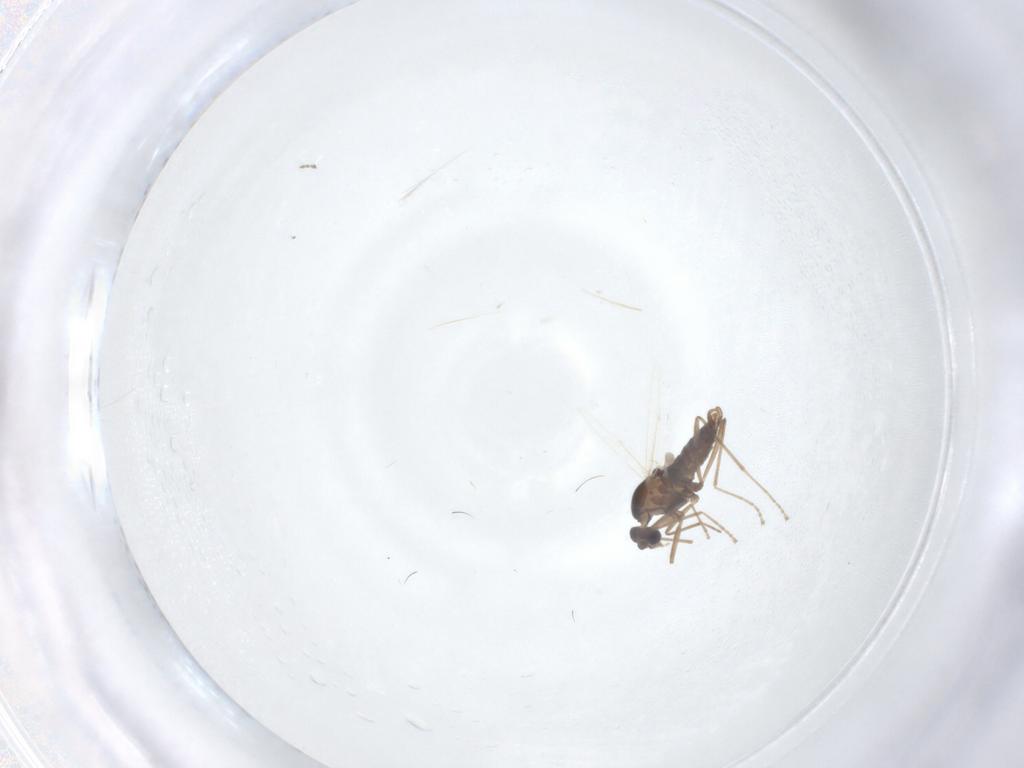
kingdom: Animalia
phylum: Arthropoda
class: Insecta
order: Diptera
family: Cecidomyiidae
